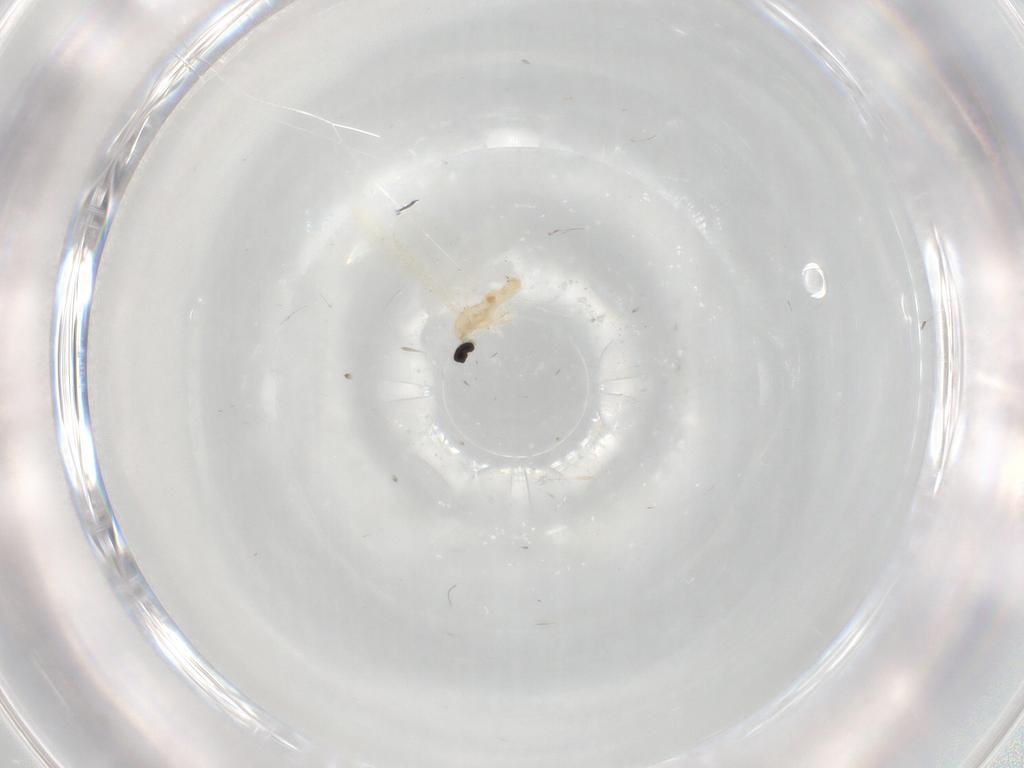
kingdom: Animalia
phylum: Arthropoda
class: Insecta
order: Diptera
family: Cecidomyiidae
